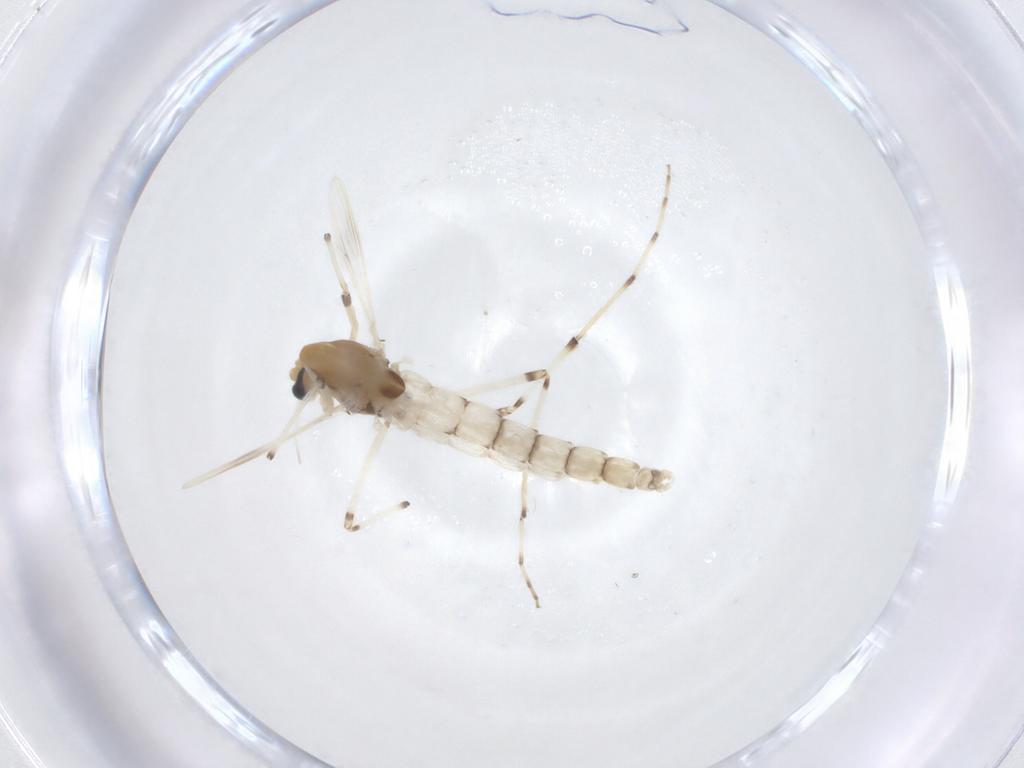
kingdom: Animalia
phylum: Arthropoda
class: Insecta
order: Diptera
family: Chironomidae
